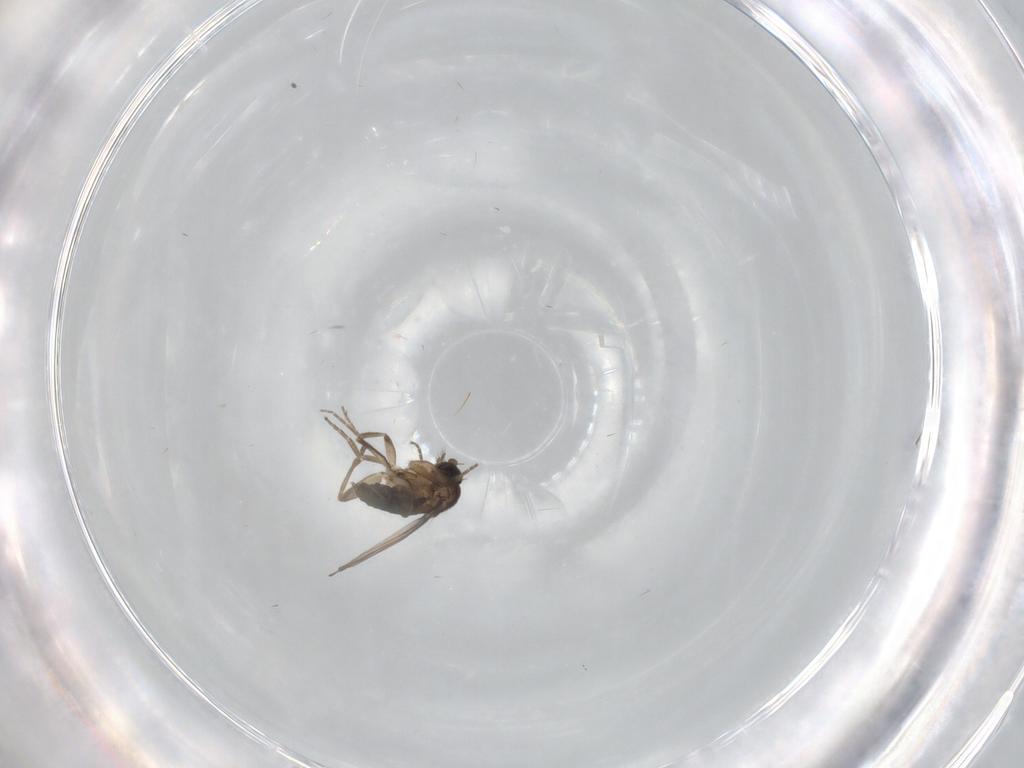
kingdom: Animalia
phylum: Arthropoda
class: Insecta
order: Diptera
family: Phoridae
